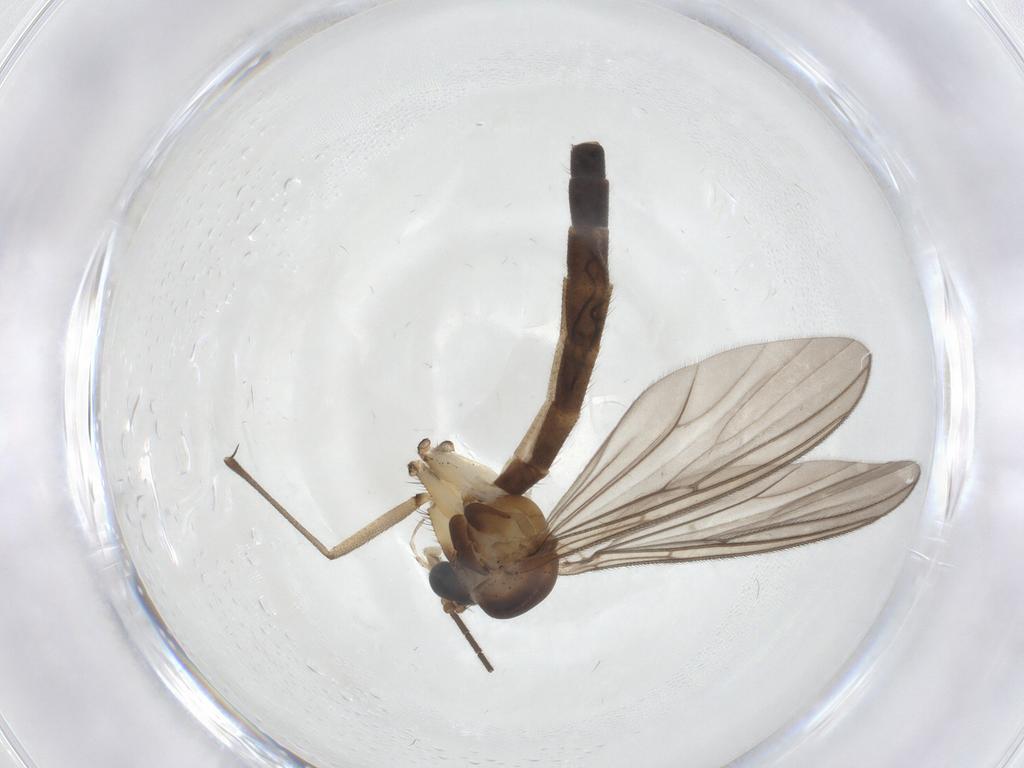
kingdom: Animalia
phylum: Arthropoda
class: Insecta
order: Diptera
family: Mycetophilidae
